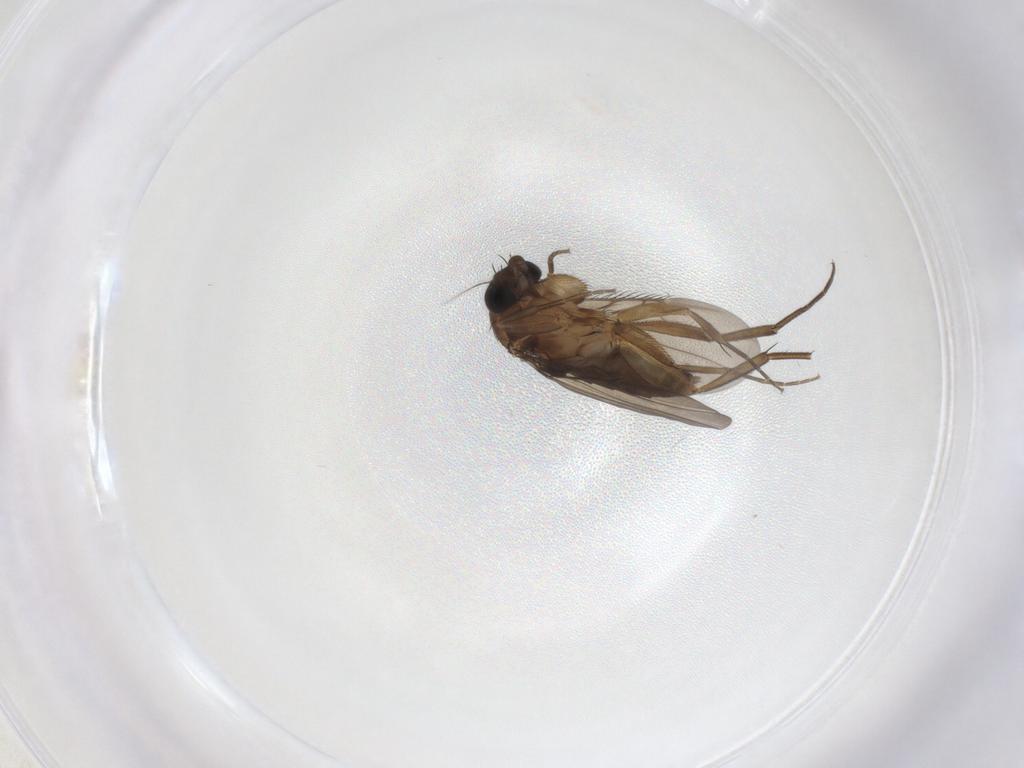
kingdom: Animalia
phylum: Arthropoda
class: Insecta
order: Diptera
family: Phoridae
